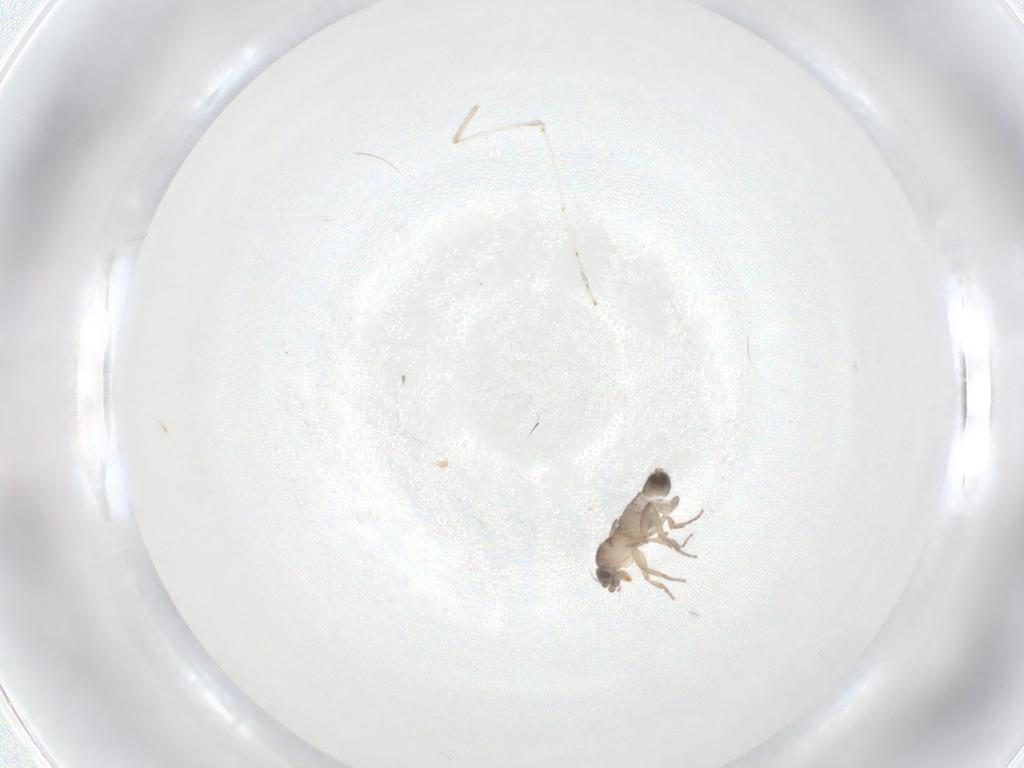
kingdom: Animalia
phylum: Arthropoda
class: Insecta
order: Diptera
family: Cecidomyiidae
